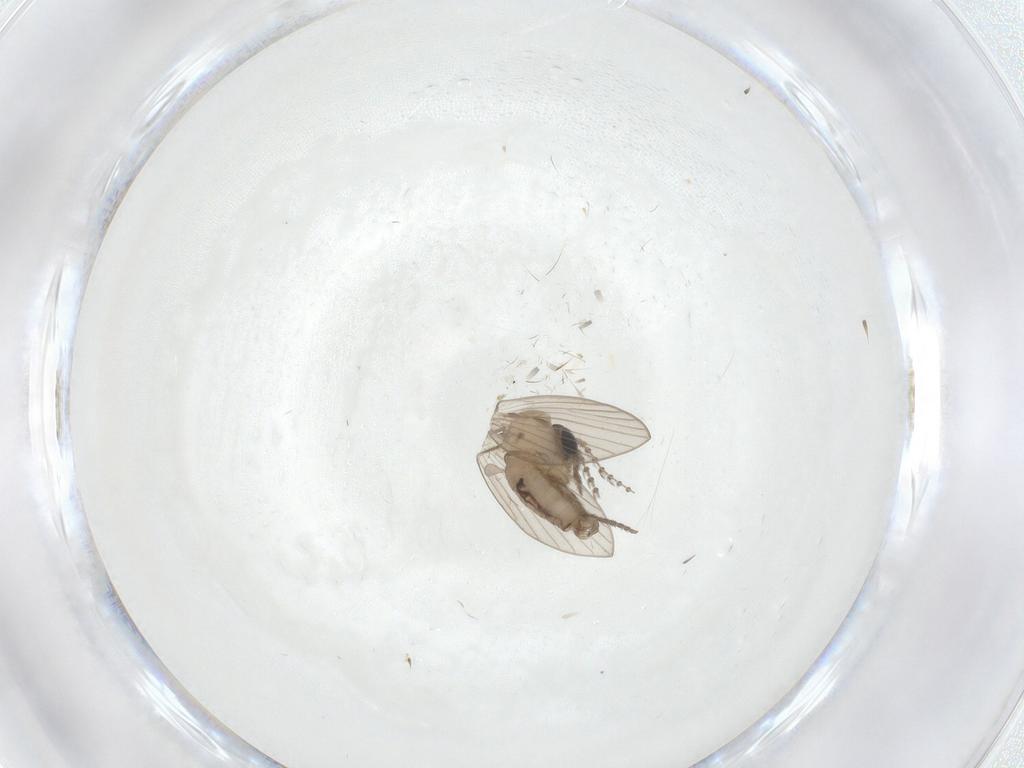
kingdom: Animalia
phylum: Arthropoda
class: Insecta
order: Diptera
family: Psychodidae
